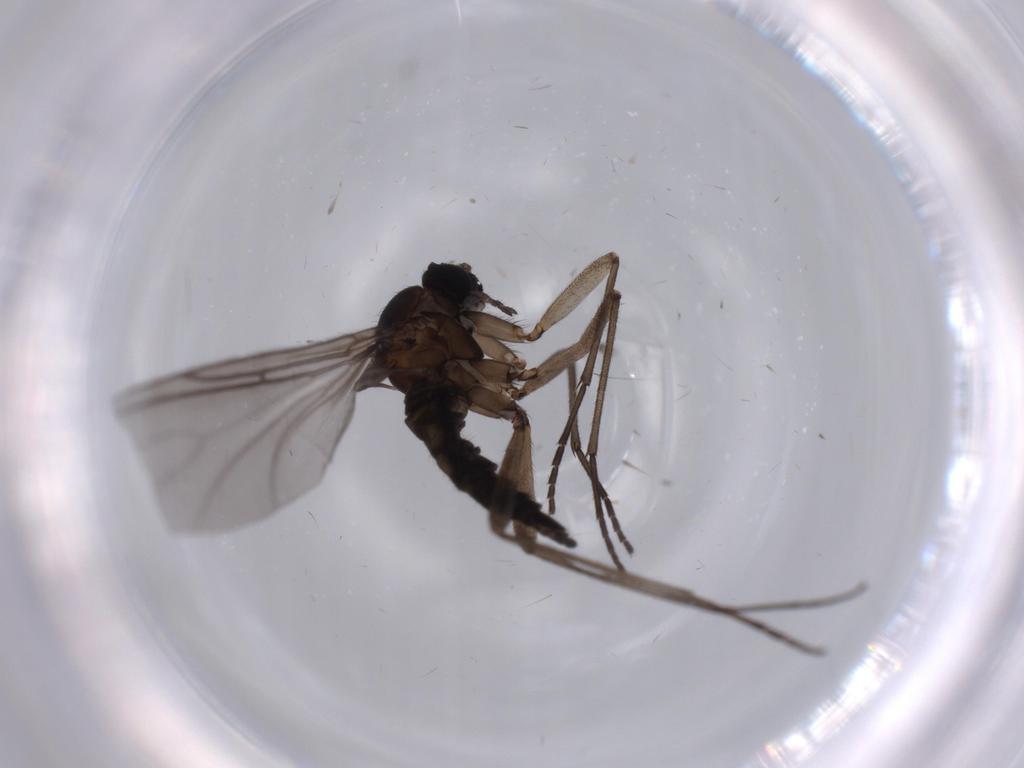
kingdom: Animalia
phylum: Arthropoda
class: Insecta
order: Diptera
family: Sciaridae
